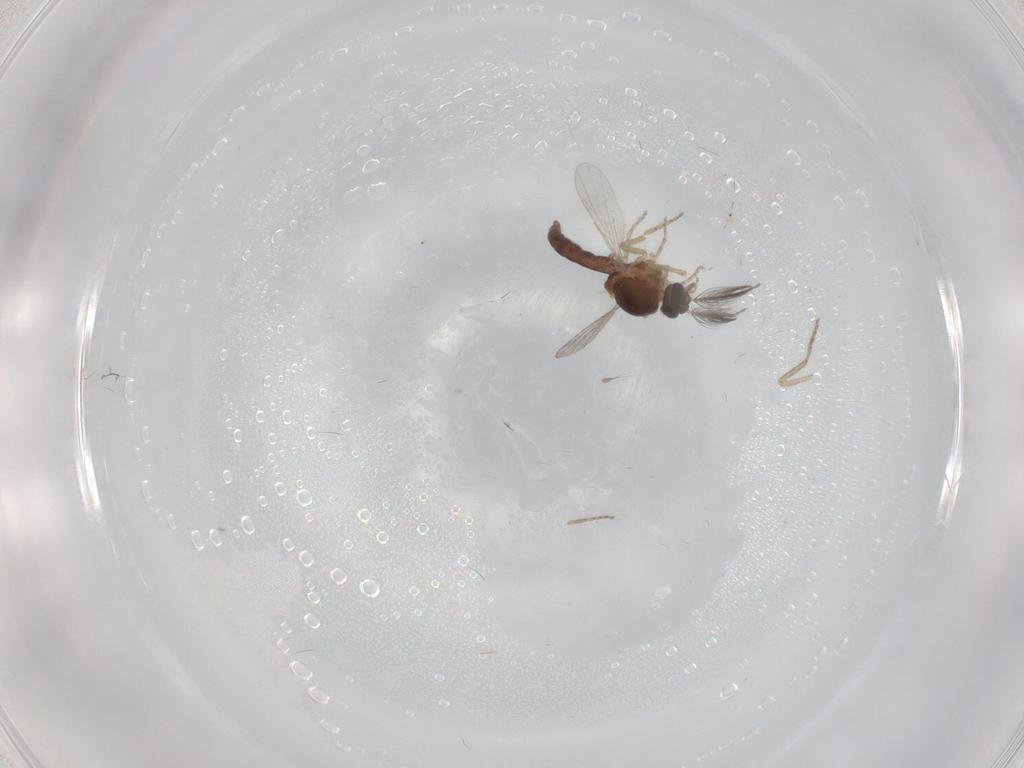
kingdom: Animalia
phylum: Arthropoda
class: Insecta
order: Diptera
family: Ceratopogonidae
